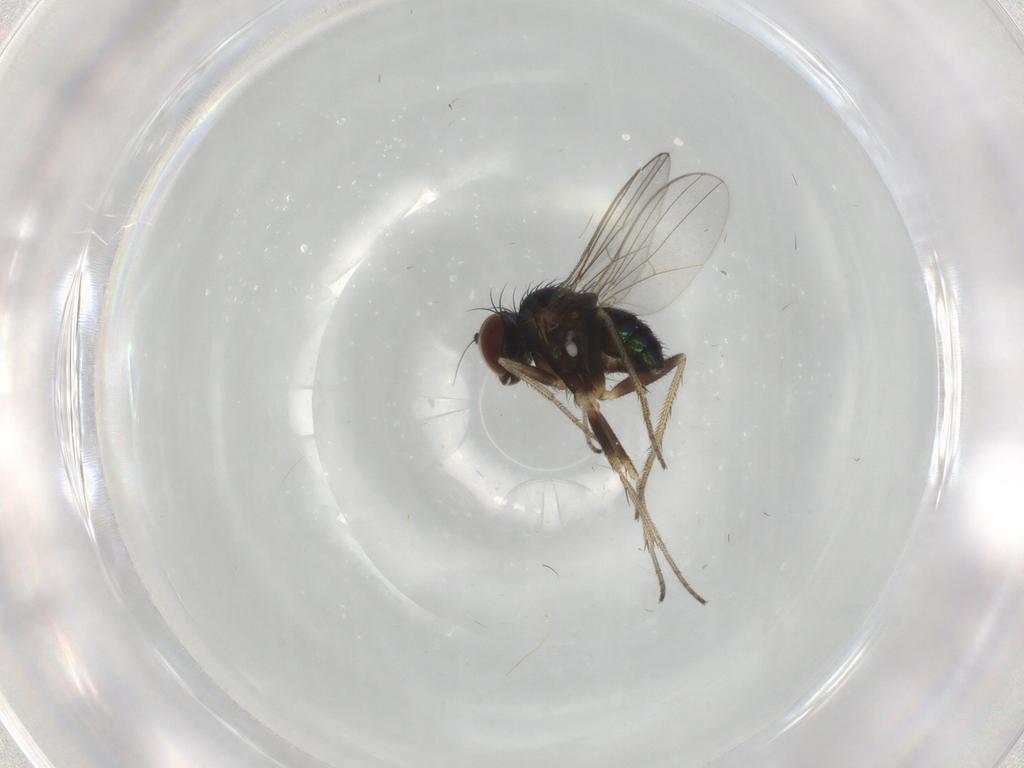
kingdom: Animalia
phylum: Arthropoda
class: Insecta
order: Diptera
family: Dolichopodidae
